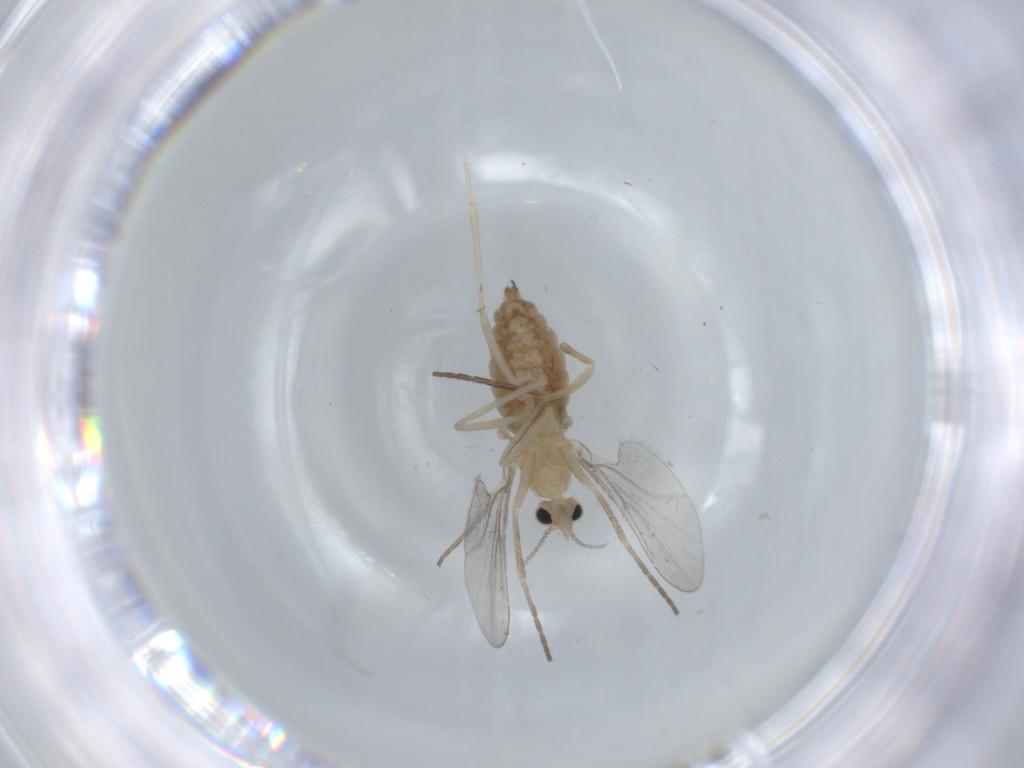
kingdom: Animalia
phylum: Arthropoda
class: Insecta
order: Diptera
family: Cecidomyiidae
